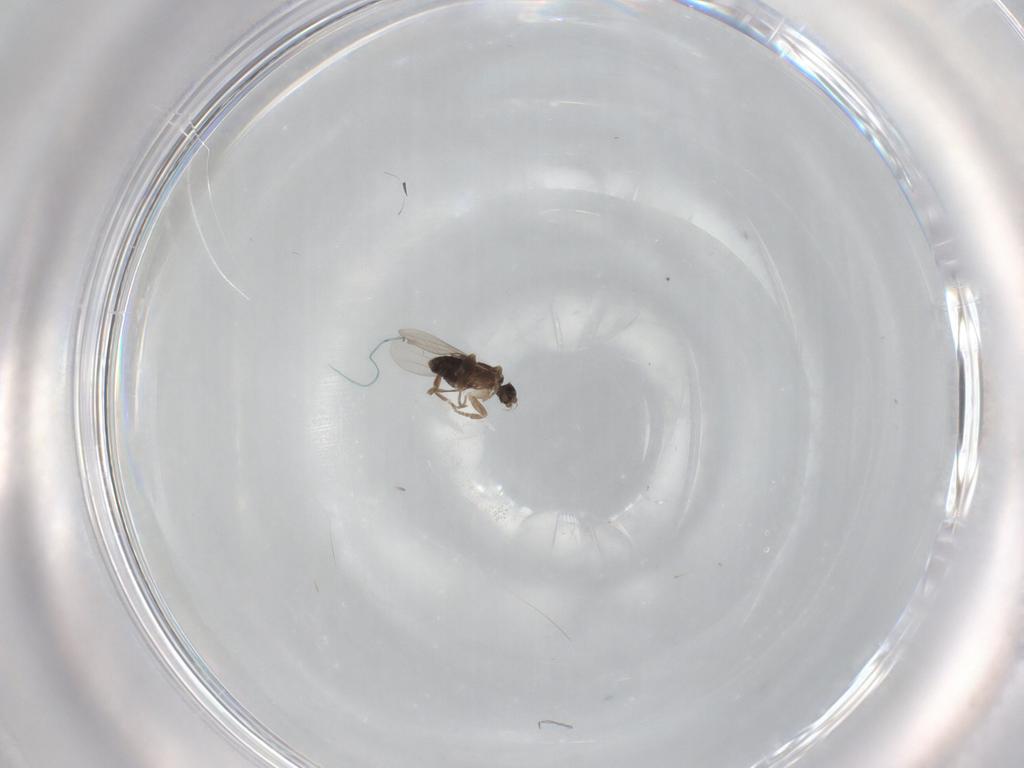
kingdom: Animalia
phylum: Arthropoda
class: Insecta
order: Diptera
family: Phoridae
